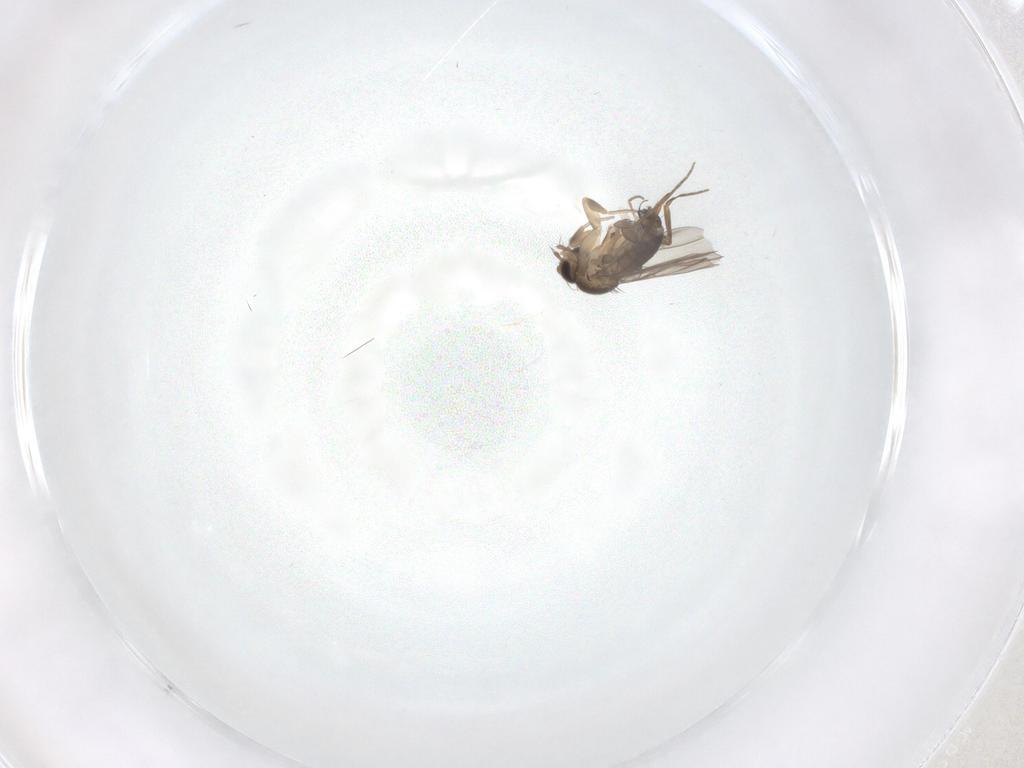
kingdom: Animalia
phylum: Arthropoda
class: Insecta
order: Diptera
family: Phoridae
